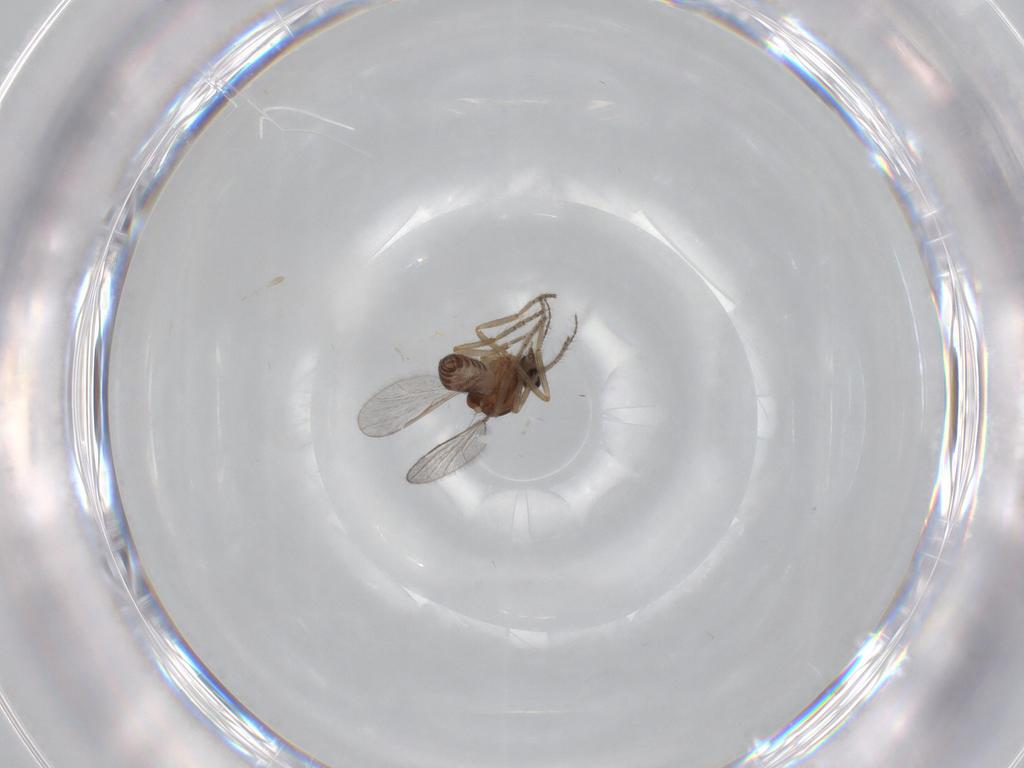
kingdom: Animalia
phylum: Arthropoda
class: Insecta
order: Diptera
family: Ceratopogonidae
